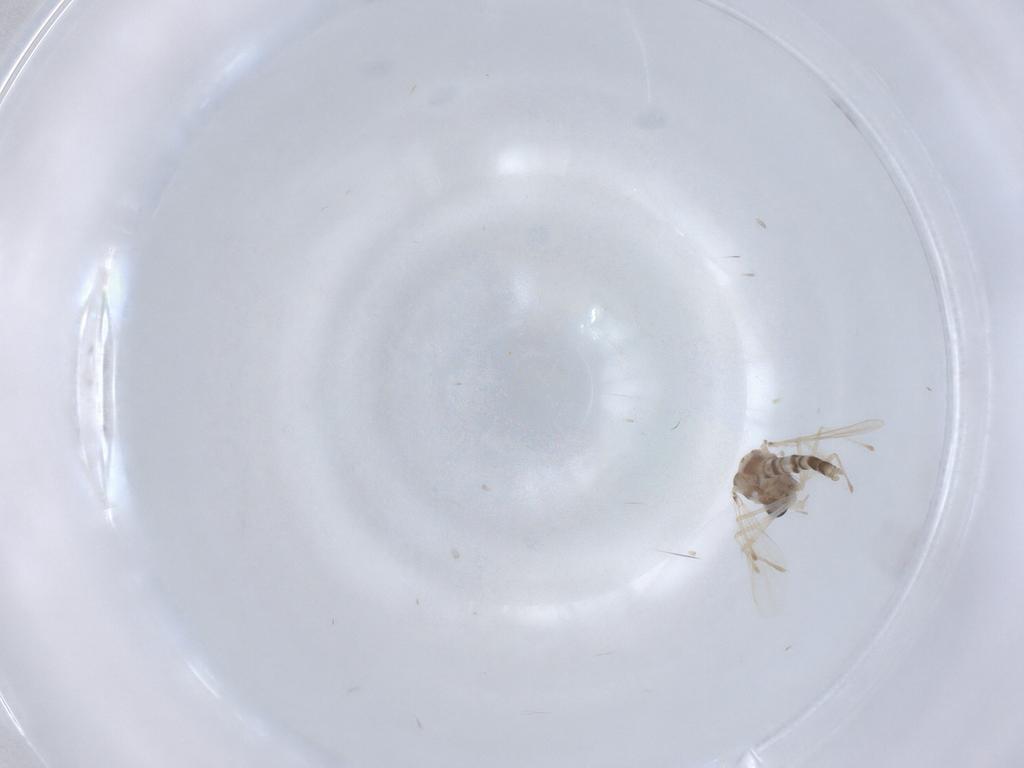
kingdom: Animalia
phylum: Arthropoda
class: Insecta
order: Diptera
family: Chironomidae
